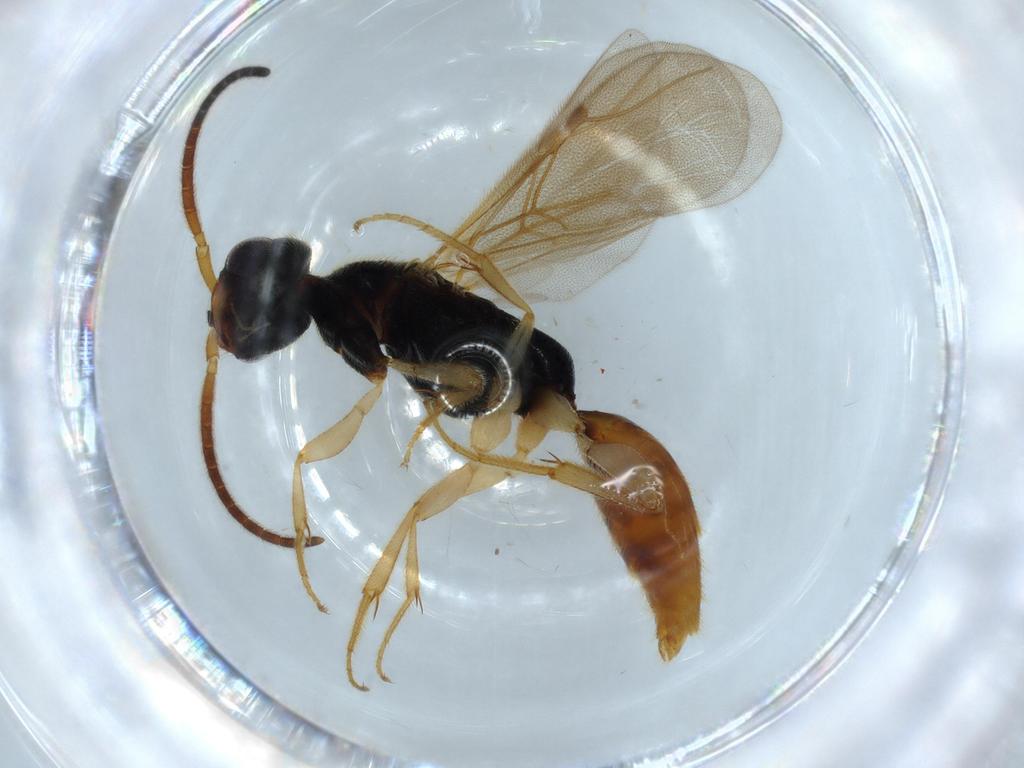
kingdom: Animalia
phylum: Arthropoda
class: Insecta
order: Hymenoptera
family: Bethylidae
